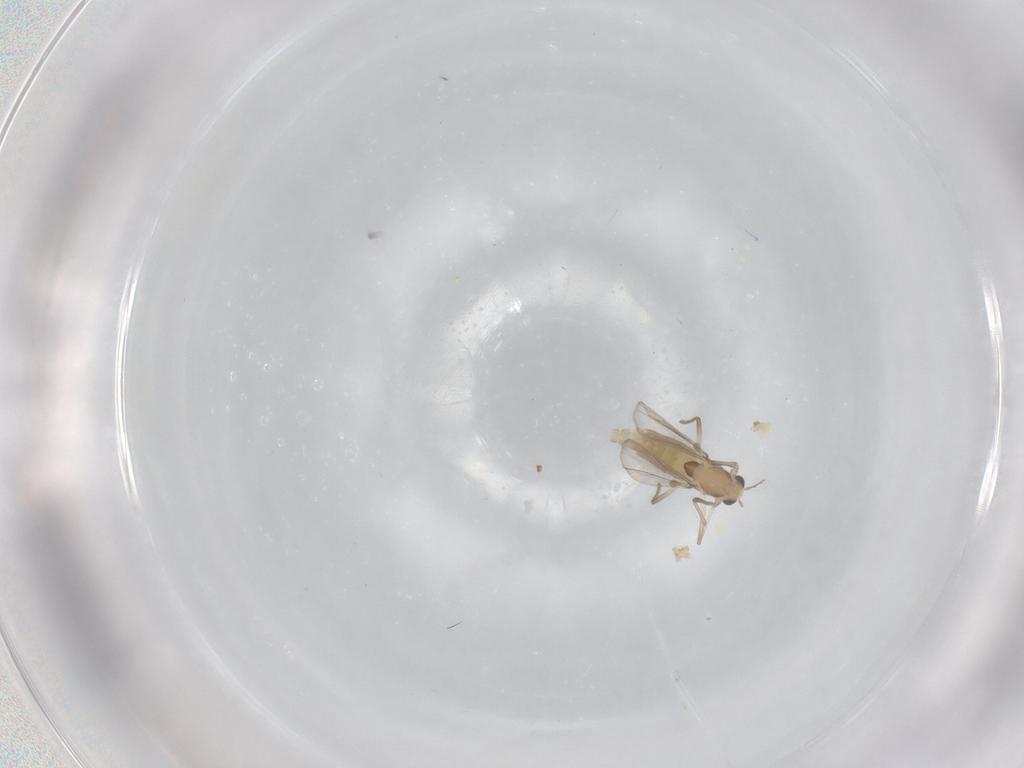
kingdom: Animalia
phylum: Arthropoda
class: Insecta
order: Diptera
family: Chironomidae
